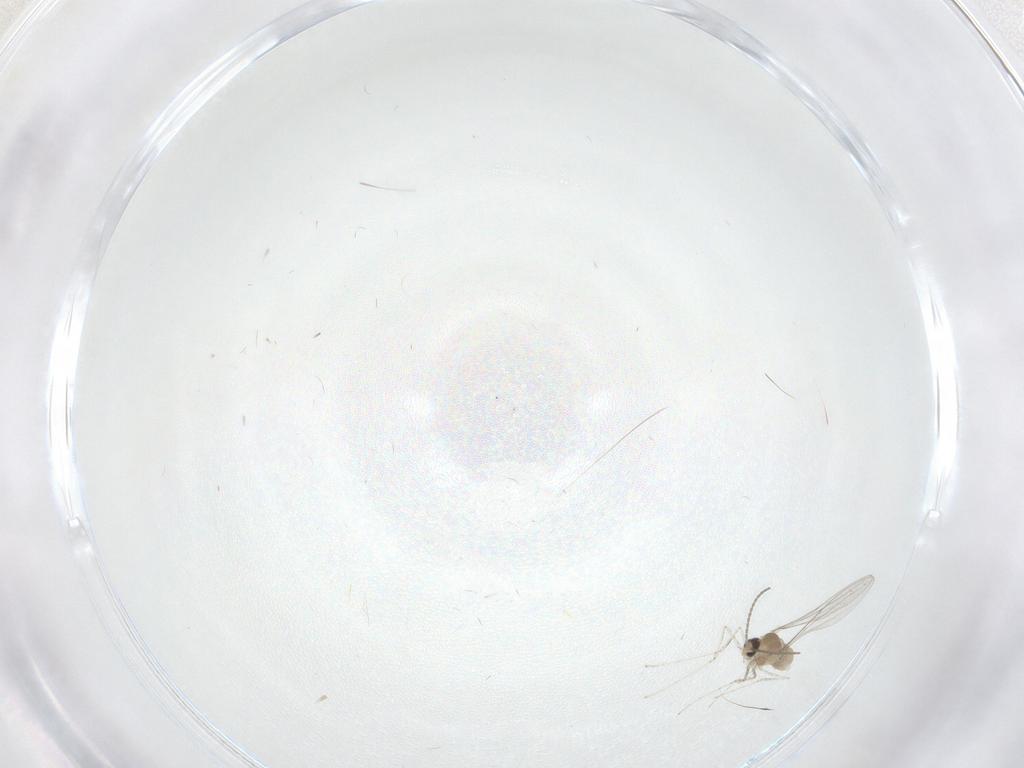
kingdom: Animalia
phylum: Arthropoda
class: Insecta
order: Diptera
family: Cecidomyiidae
